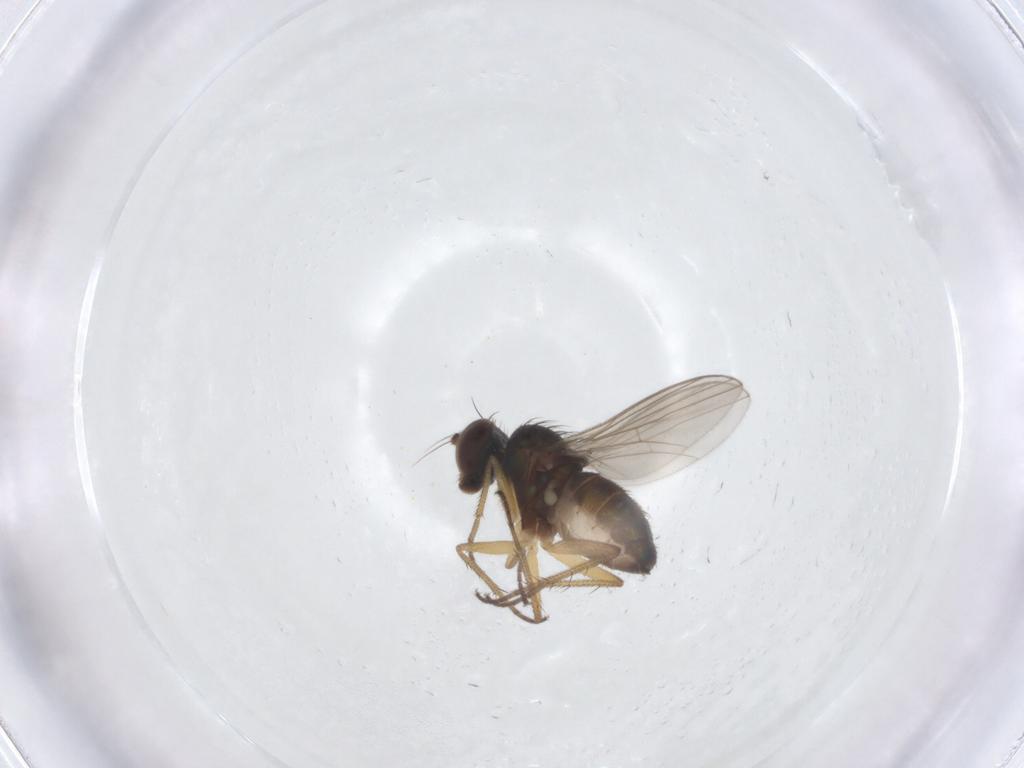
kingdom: Animalia
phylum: Arthropoda
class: Insecta
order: Diptera
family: Dolichopodidae
